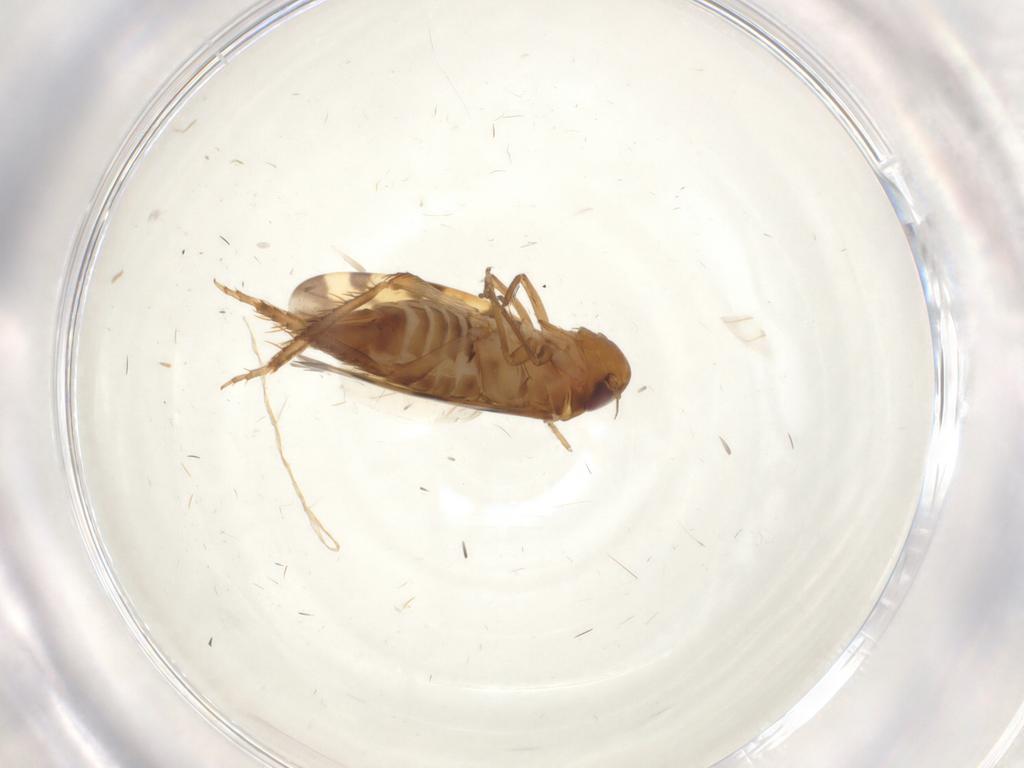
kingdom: Animalia
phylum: Arthropoda
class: Insecta
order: Hemiptera
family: Cicadellidae
